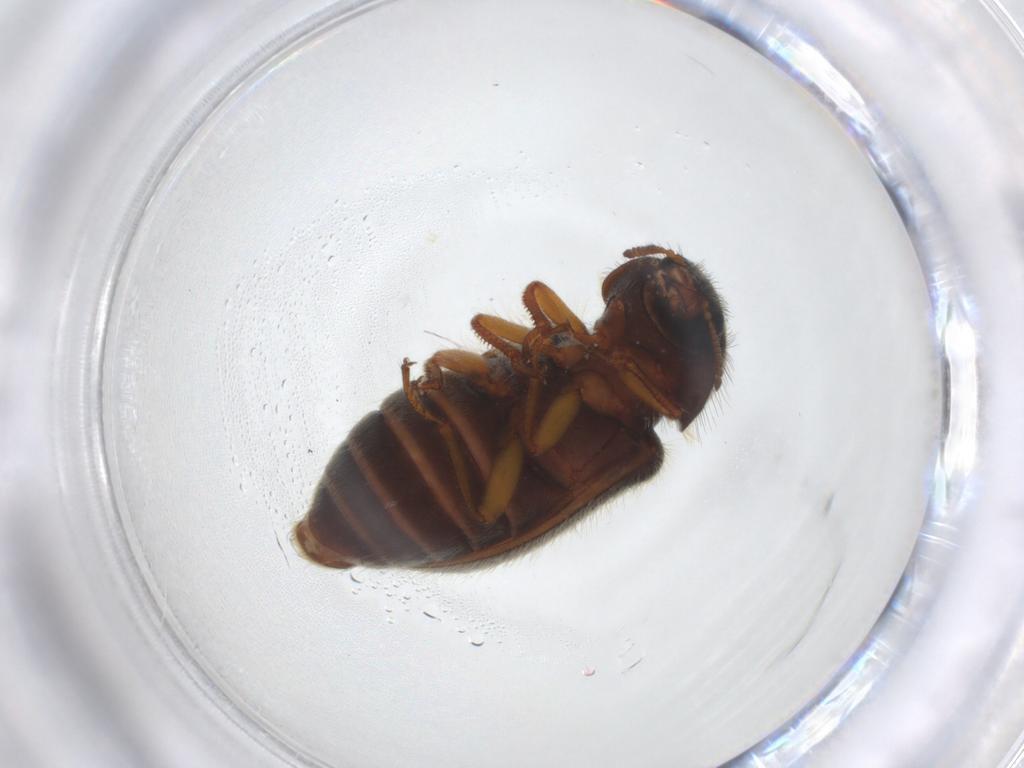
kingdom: Animalia
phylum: Arthropoda
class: Insecta
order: Coleoptera
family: Melyridae
